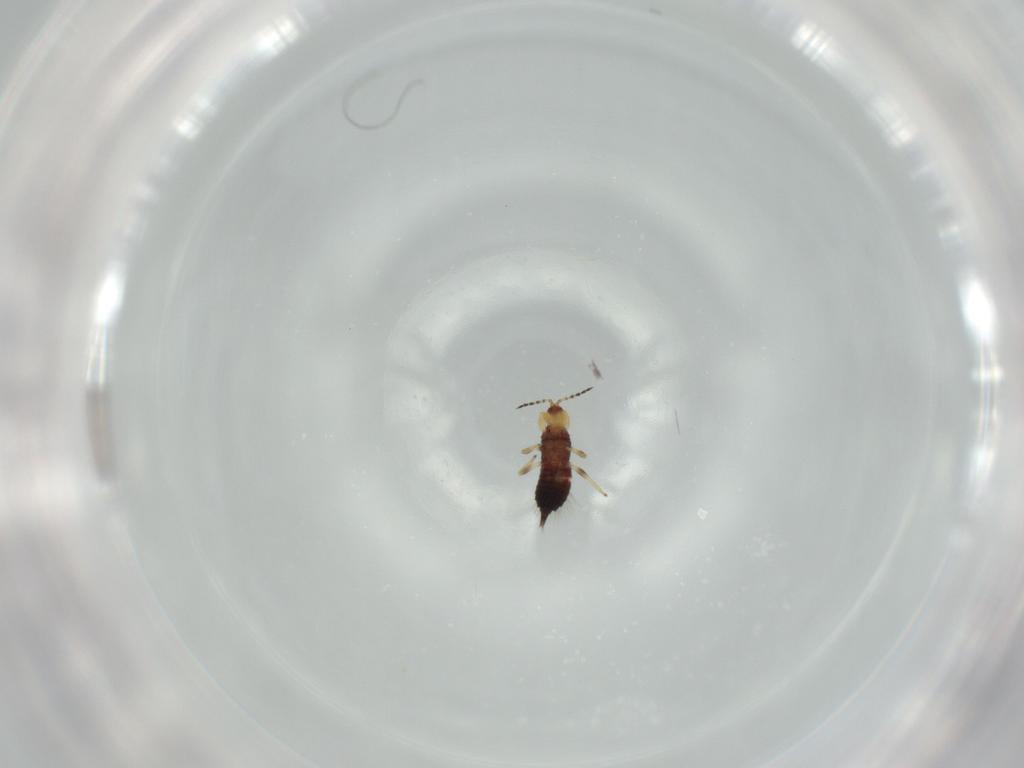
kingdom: Animalia
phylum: Arthropoda
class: Insecta
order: Thysanoptera
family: Phlaeothripidae
